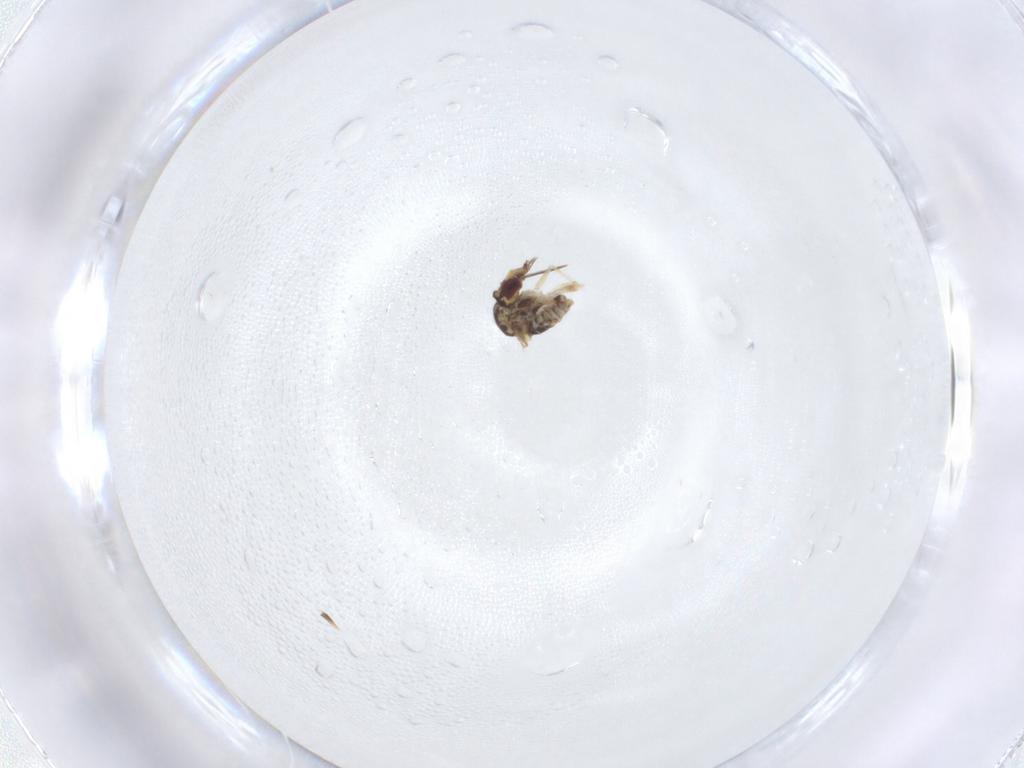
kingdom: Animalia
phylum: Arthropoda
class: Insecta
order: Diptera
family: Bombyliidae
